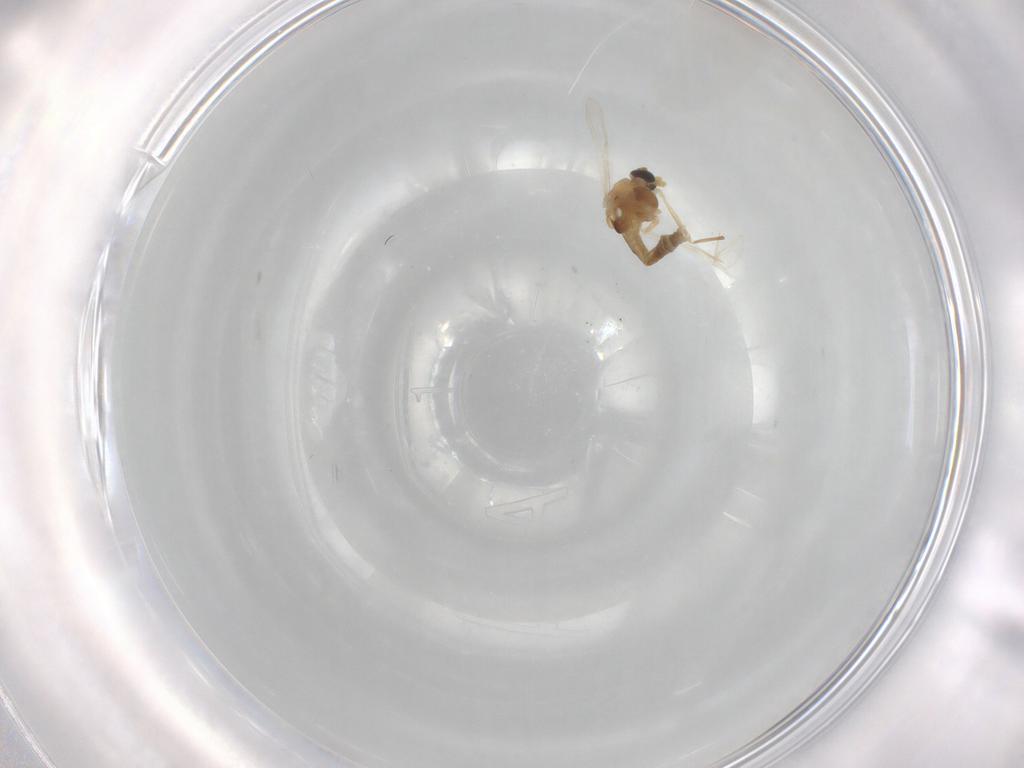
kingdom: Animalia
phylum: Arthropoda
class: Insecta
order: Diptera
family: Chironomidae
